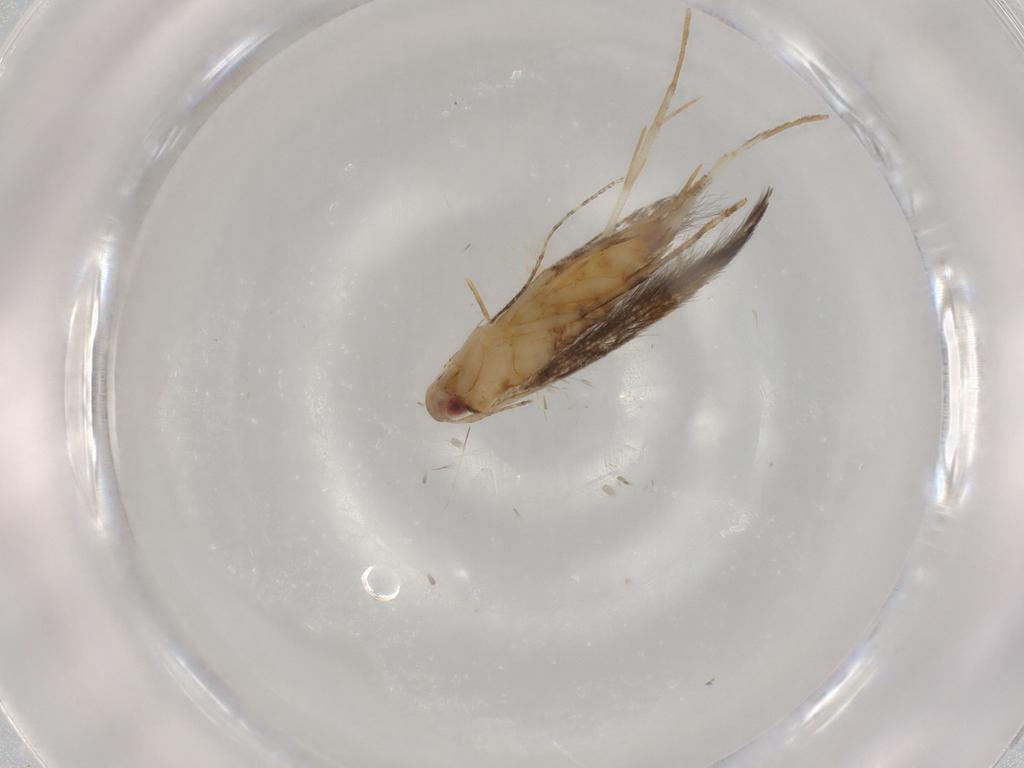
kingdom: Animalia
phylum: Arthropoda
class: Insecta
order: Lepidoptera
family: Cosmopterigidae
